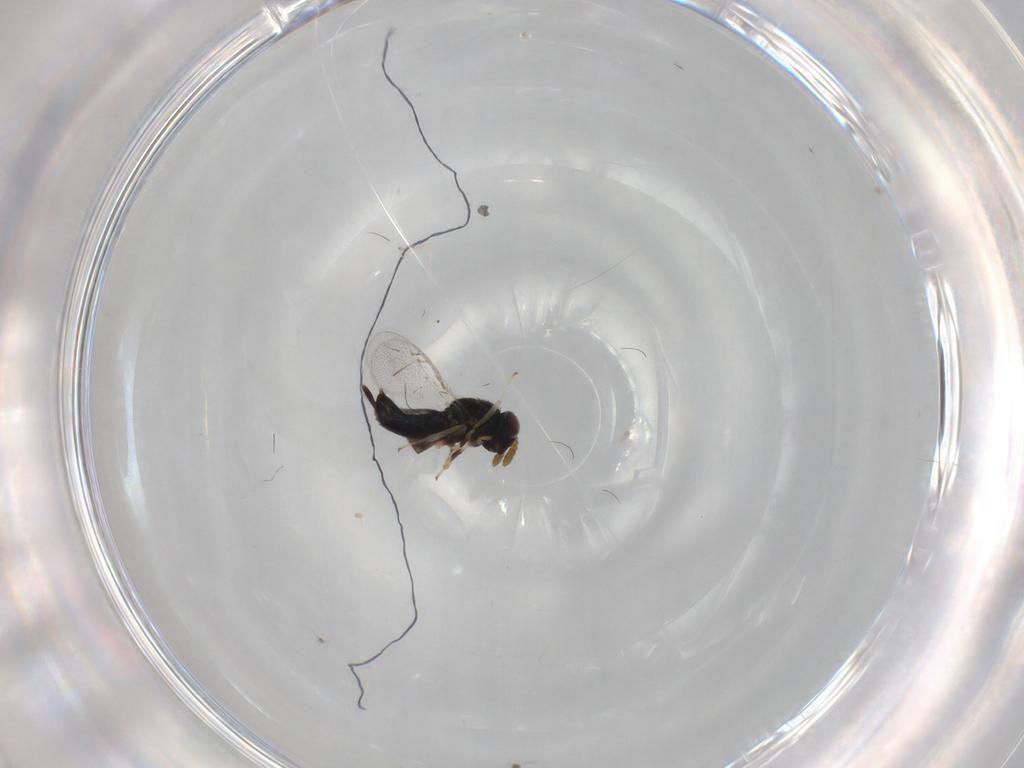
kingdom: Animalia
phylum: Arthropoda
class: Insecta
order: Hymenoptera
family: Pirenidae
